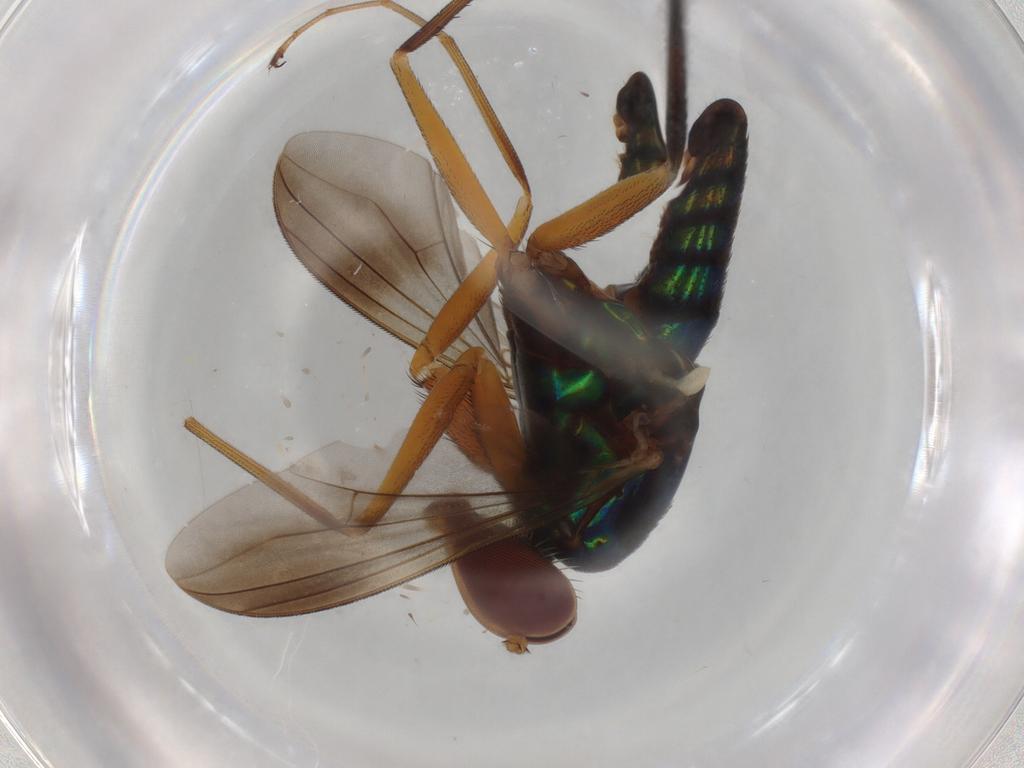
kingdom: Animalia
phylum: Arthropoda
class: Insecta
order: Diptera
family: Dolichopodidae
